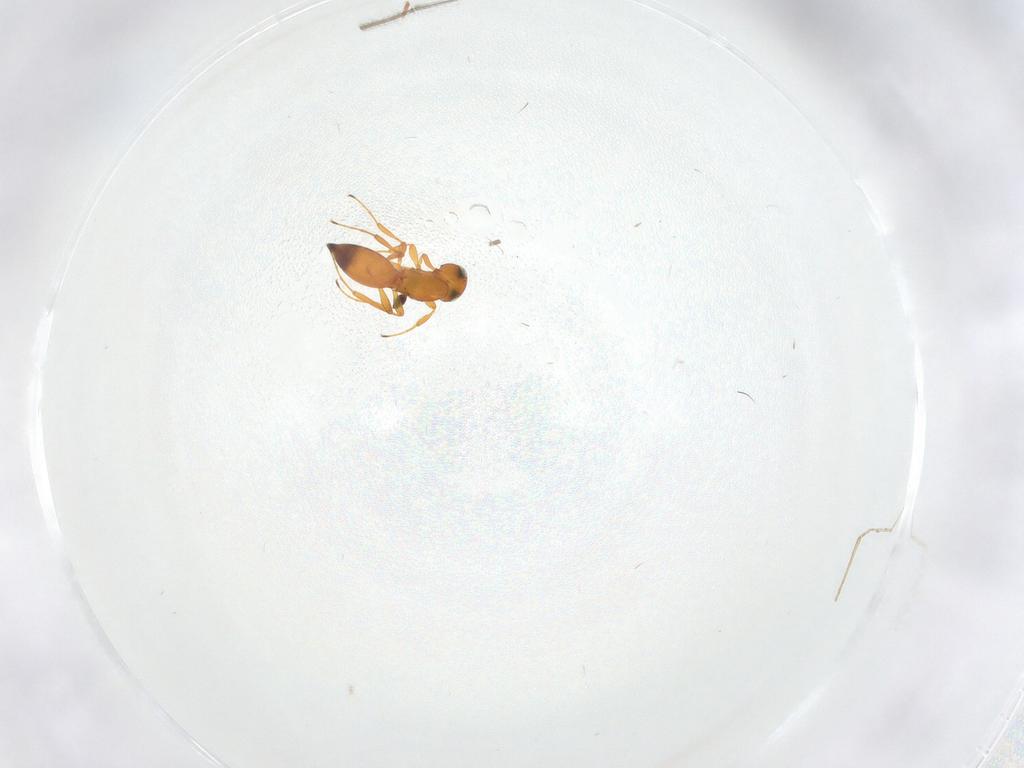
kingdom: Animalia
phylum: Arthropoda
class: Insecta
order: Hymenoptera
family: Platygastridae
